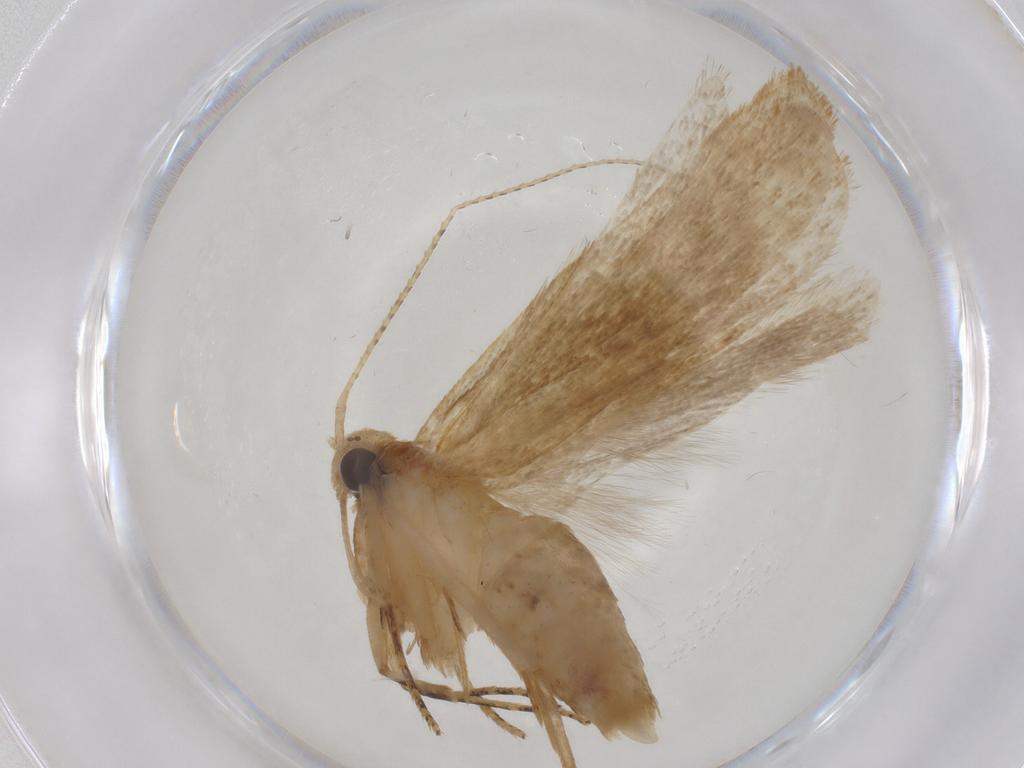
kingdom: Animalia
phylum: Arthropoda
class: Insecta
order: Lepidoptera
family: Gelechiidae
